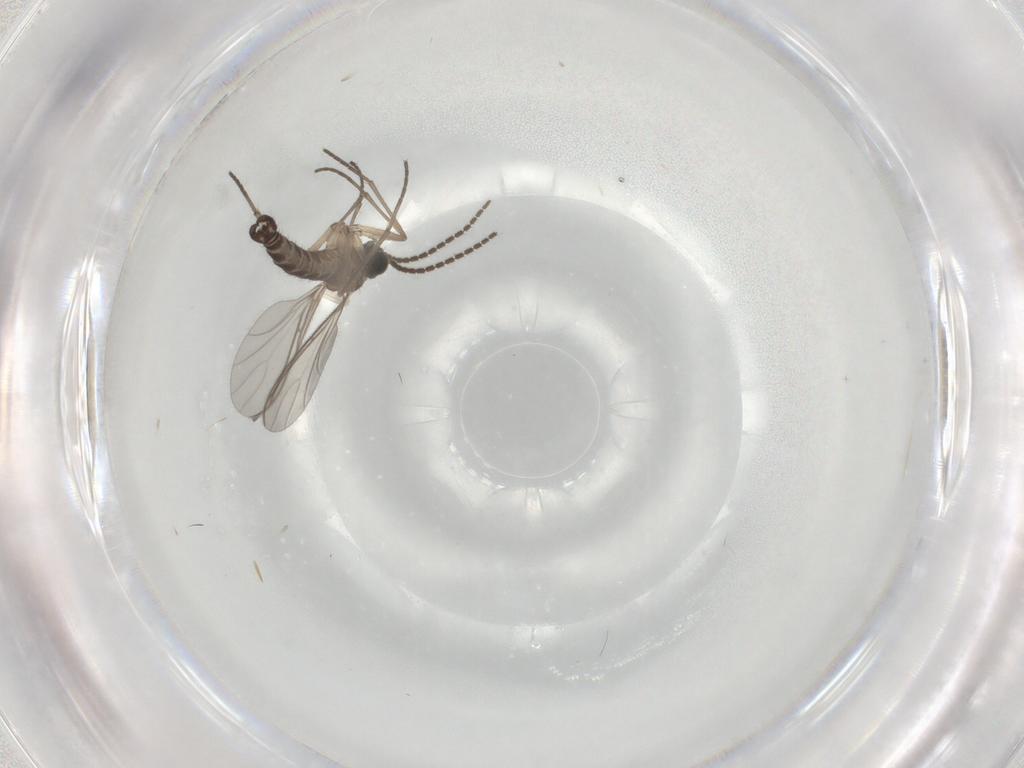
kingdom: Animalia
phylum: Arthropoda
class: Insecta
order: Diptera
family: Sciaridae
